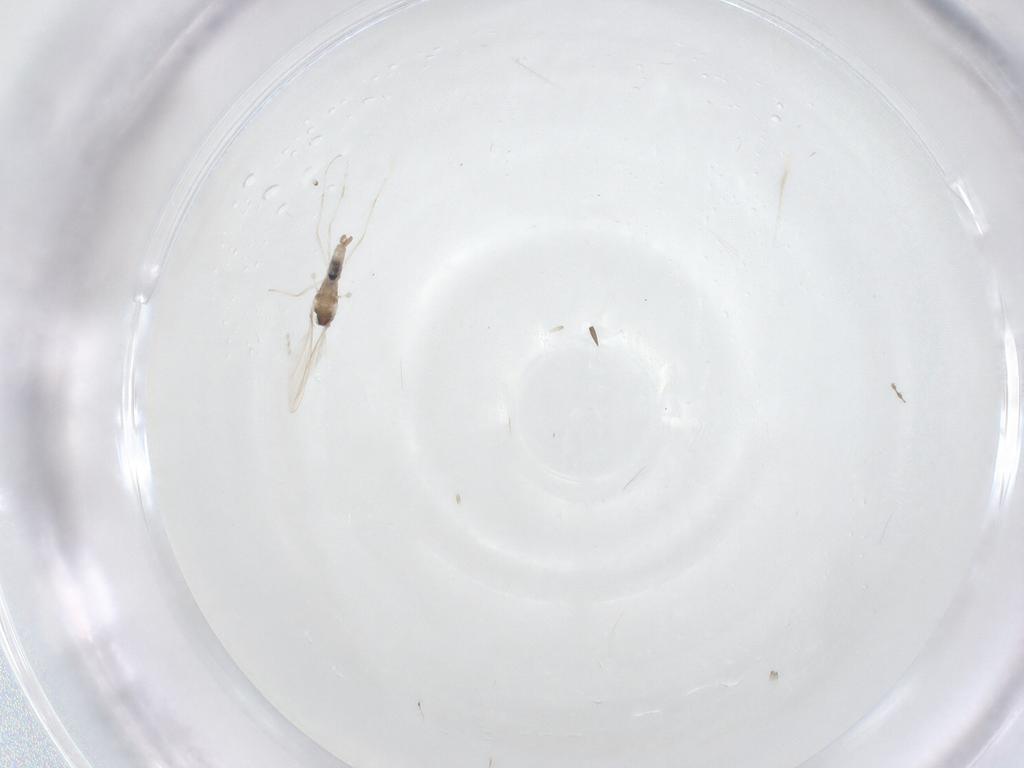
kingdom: Animalia
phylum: Arthropoda
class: Insecta
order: Diptera
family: Cecidomyiidae
